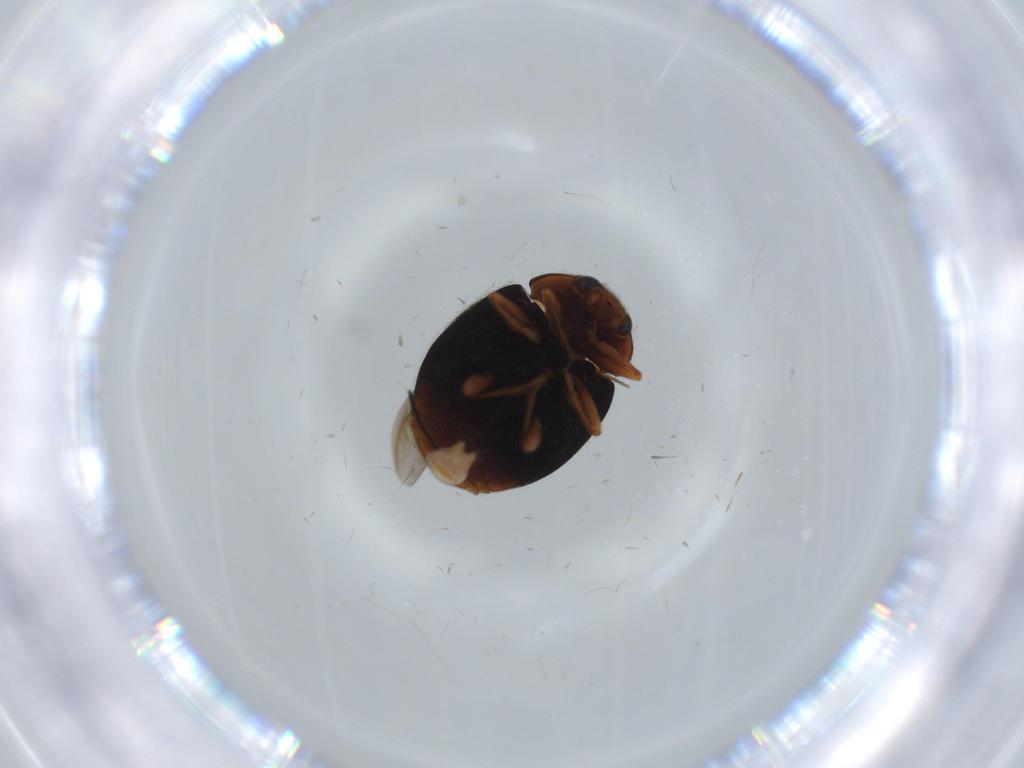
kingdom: Animalia
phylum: Arthropoda
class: Insecta
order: Coleoptera
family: Coccinellidae
